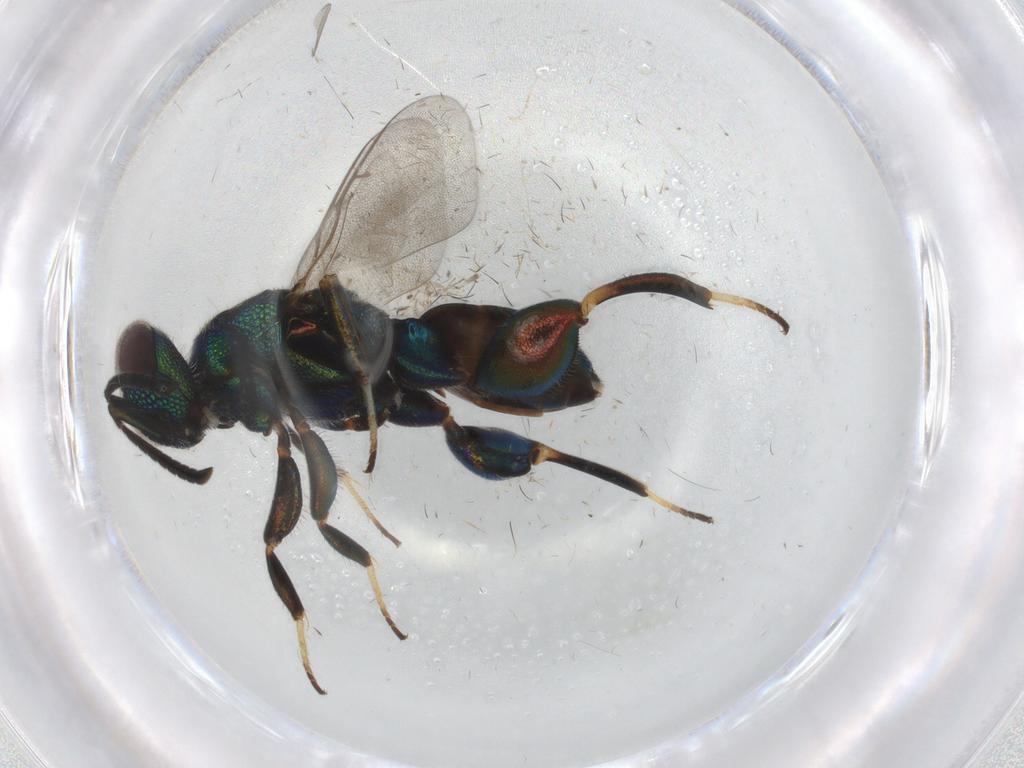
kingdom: Animalia
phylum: Arthropoda
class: Insecta
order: Hymenoptera
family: Pteromalidae
